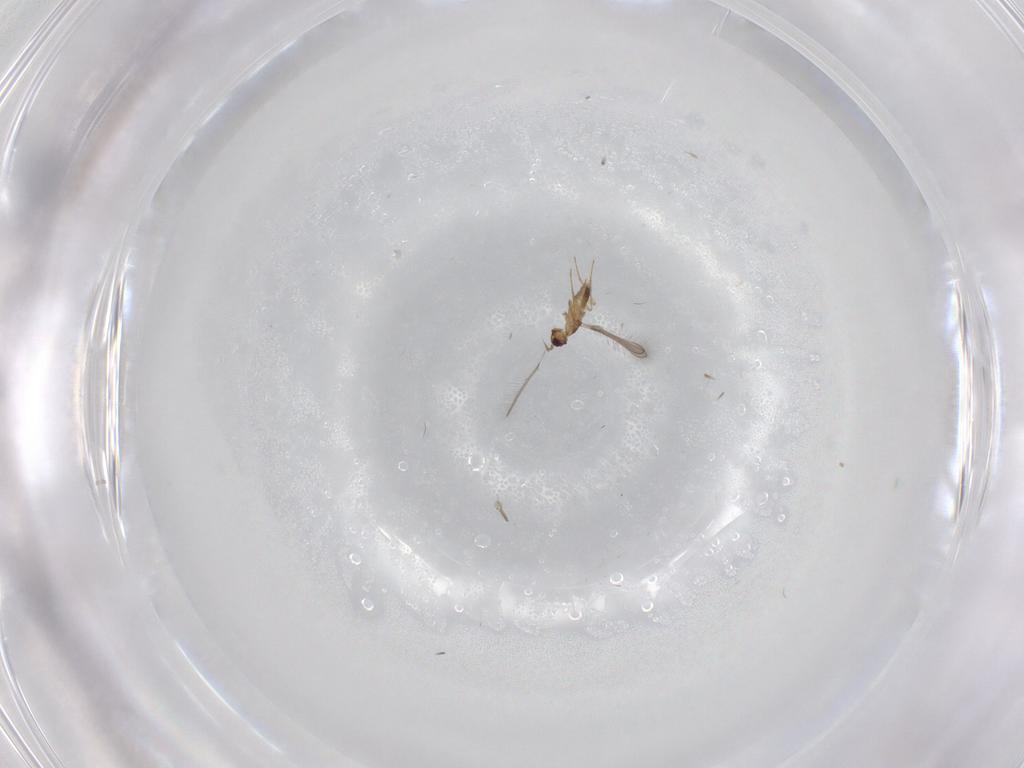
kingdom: Animalia
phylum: Arthropoda
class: Insecta
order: Hymenoptera
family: Mymaridae
